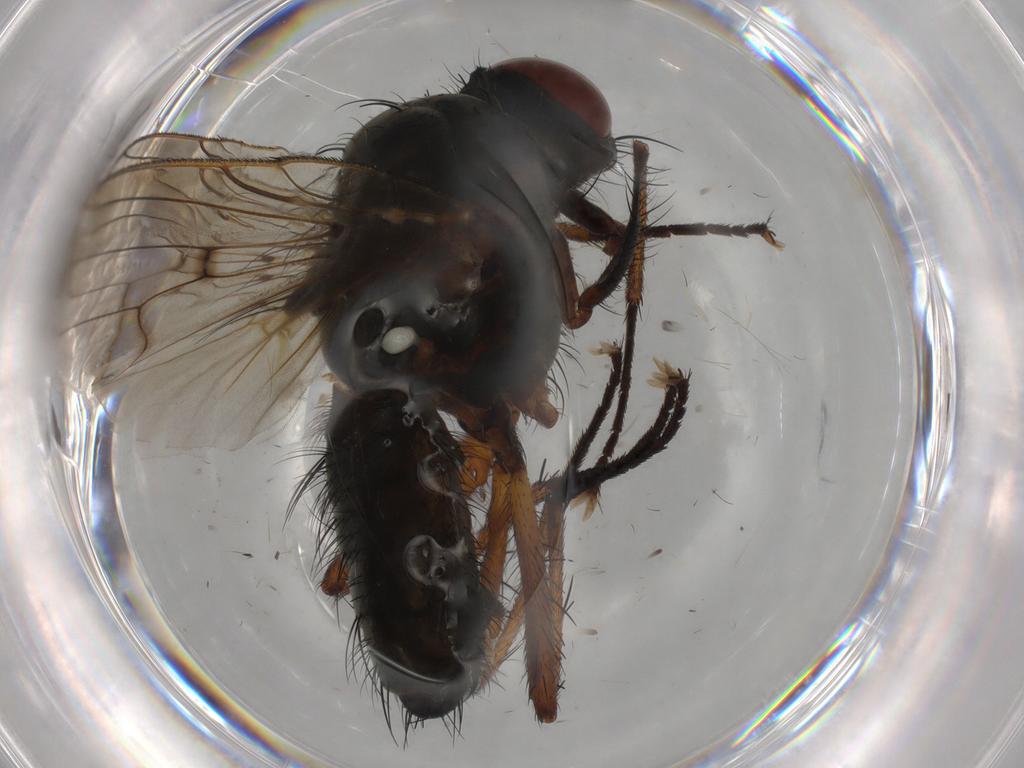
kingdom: Animalia
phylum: Arthropoda
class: Insecta
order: Diptera
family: Anthomyiidae
